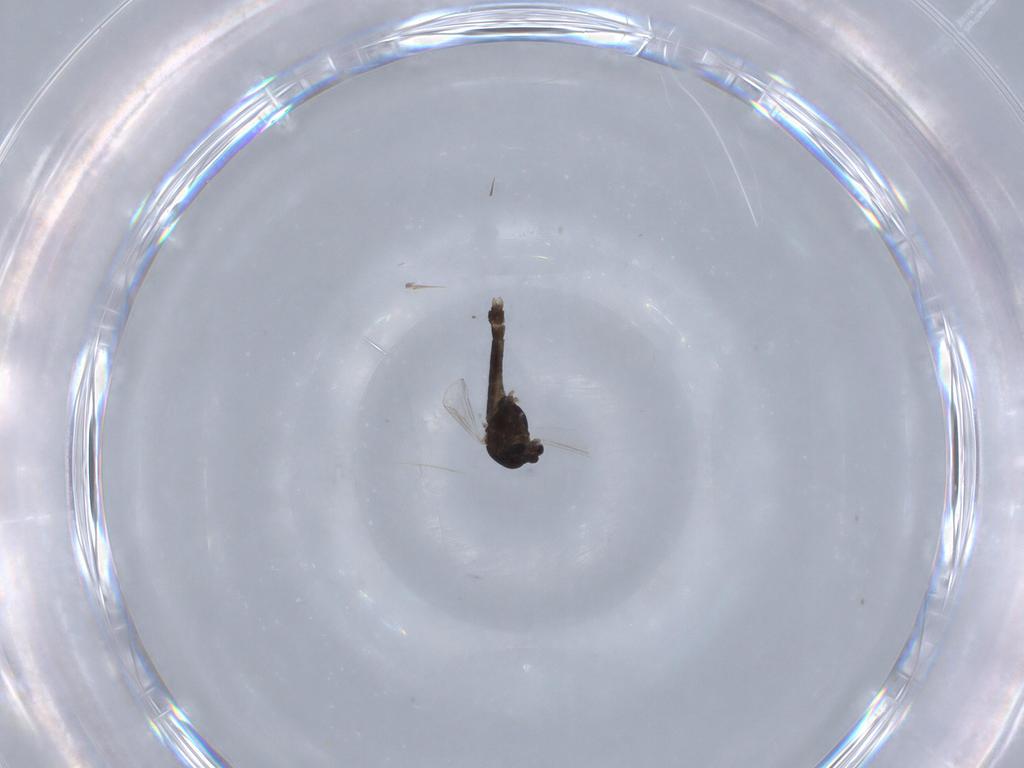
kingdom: Animalia
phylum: Arthropoda
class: Insecta
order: Diptera
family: Chironomidae
